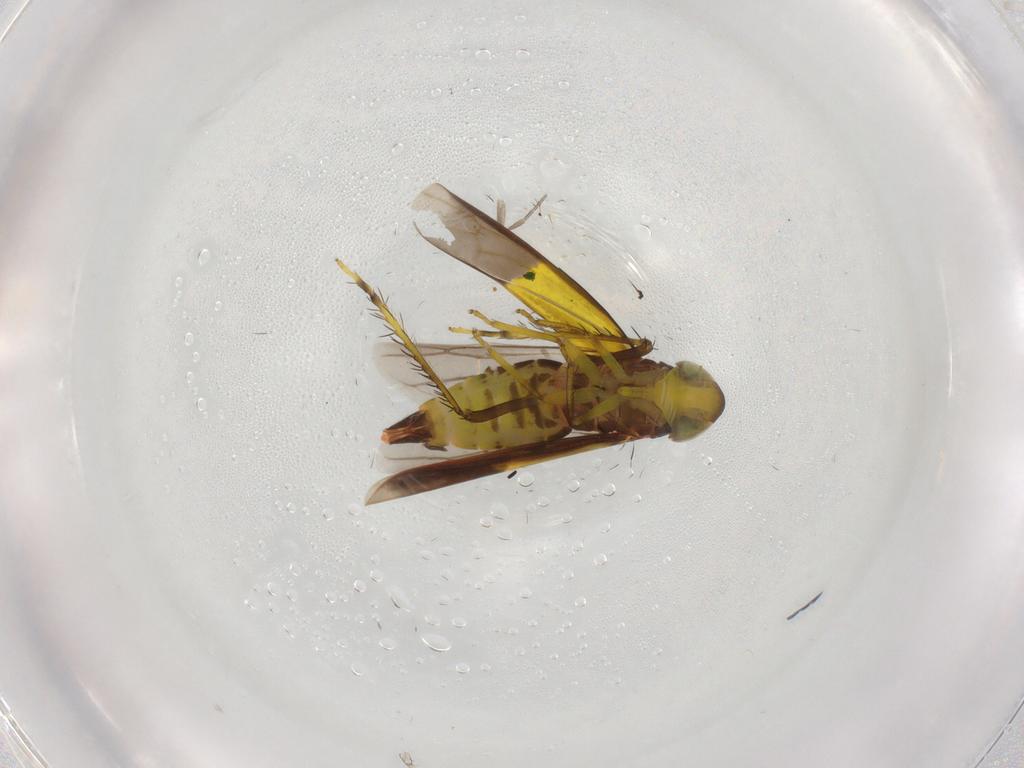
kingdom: Animalia
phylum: Arthropoda
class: Insecta
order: Hemiptera
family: Cicadellidae
